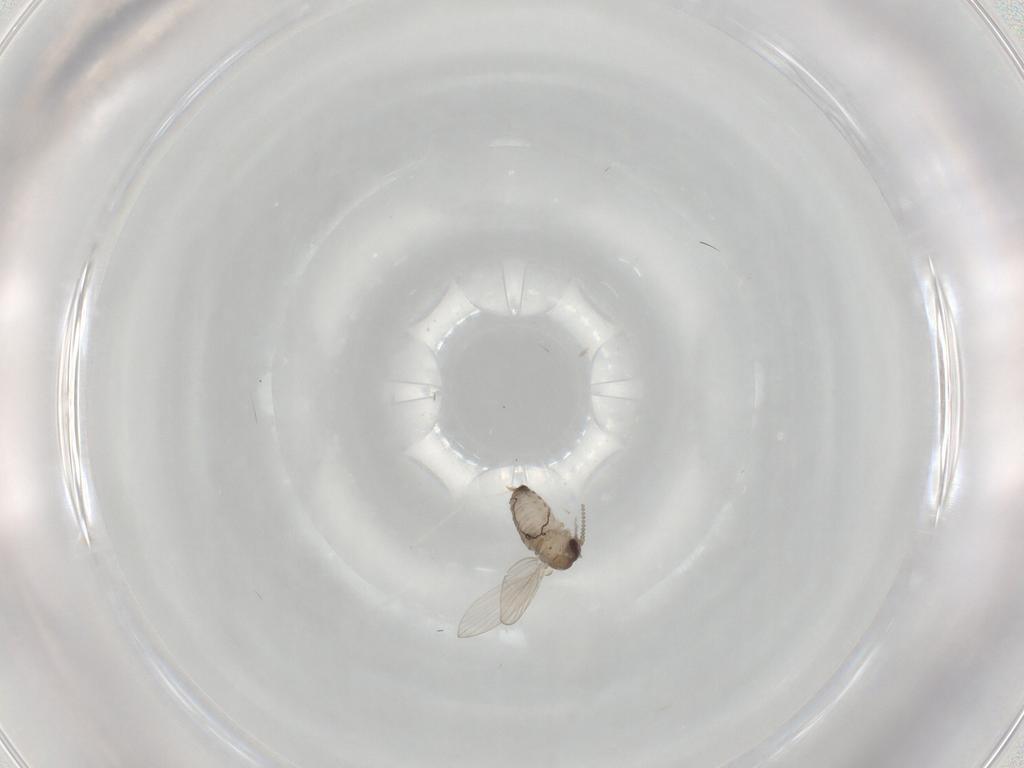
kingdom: Animalia
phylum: Arthropoda
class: Insecta
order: Diptera
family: Psychodidae
